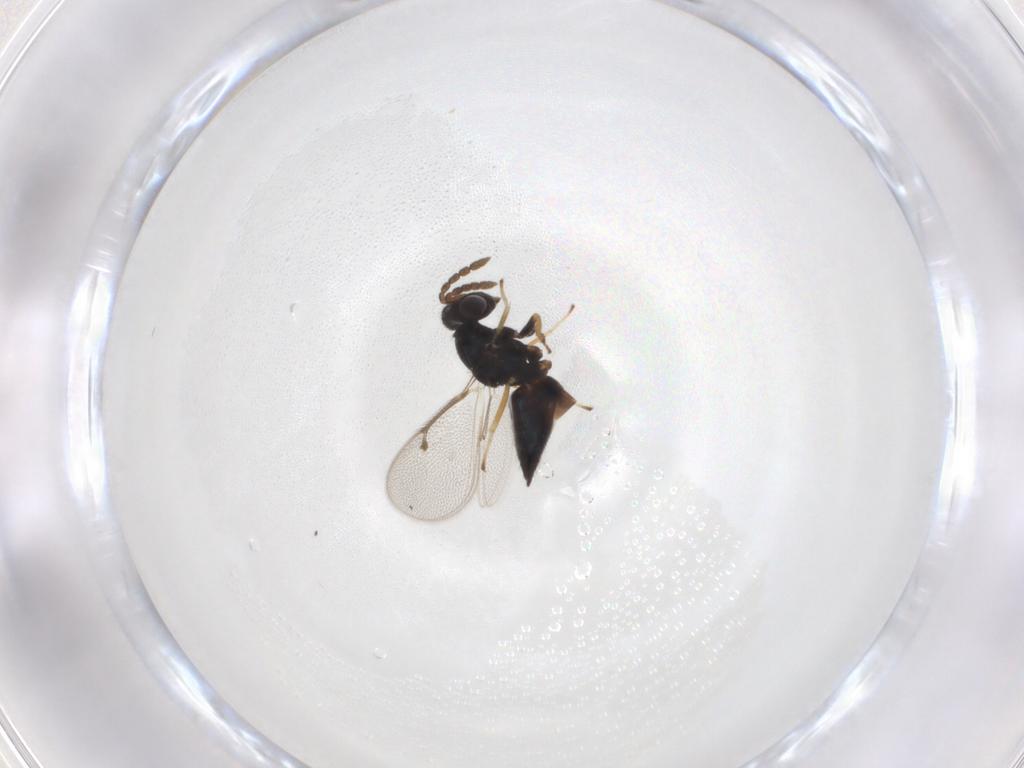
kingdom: Animalia
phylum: Arthropoda
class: Insecta
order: Hymenoptera
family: Eulophidae
